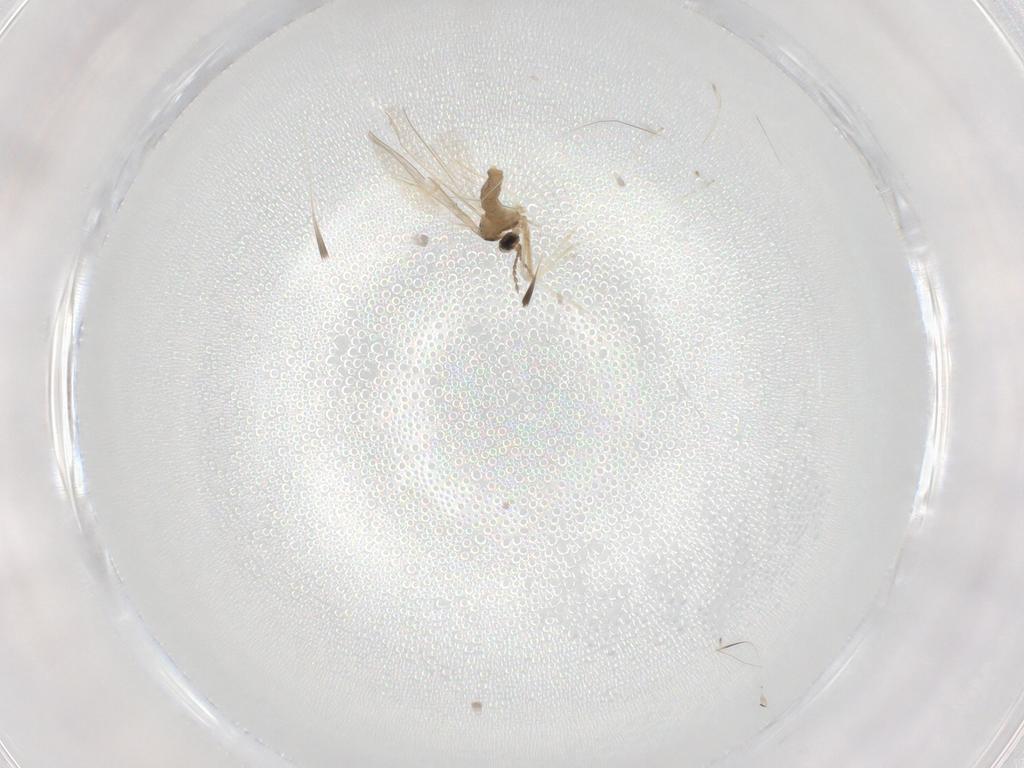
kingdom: Animalia
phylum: Arthropoda
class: Insecta
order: Diptera
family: Cecidomyiidae
